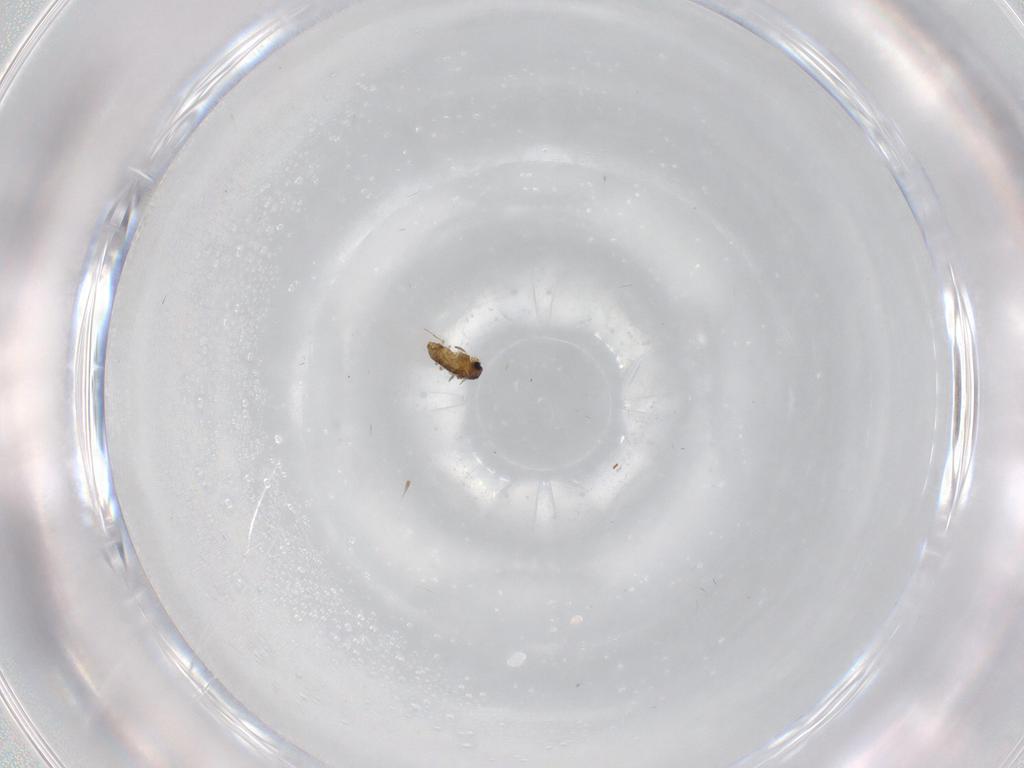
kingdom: Animalia
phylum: Arthropoda
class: Insecta
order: Diptera
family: Chironomidae
